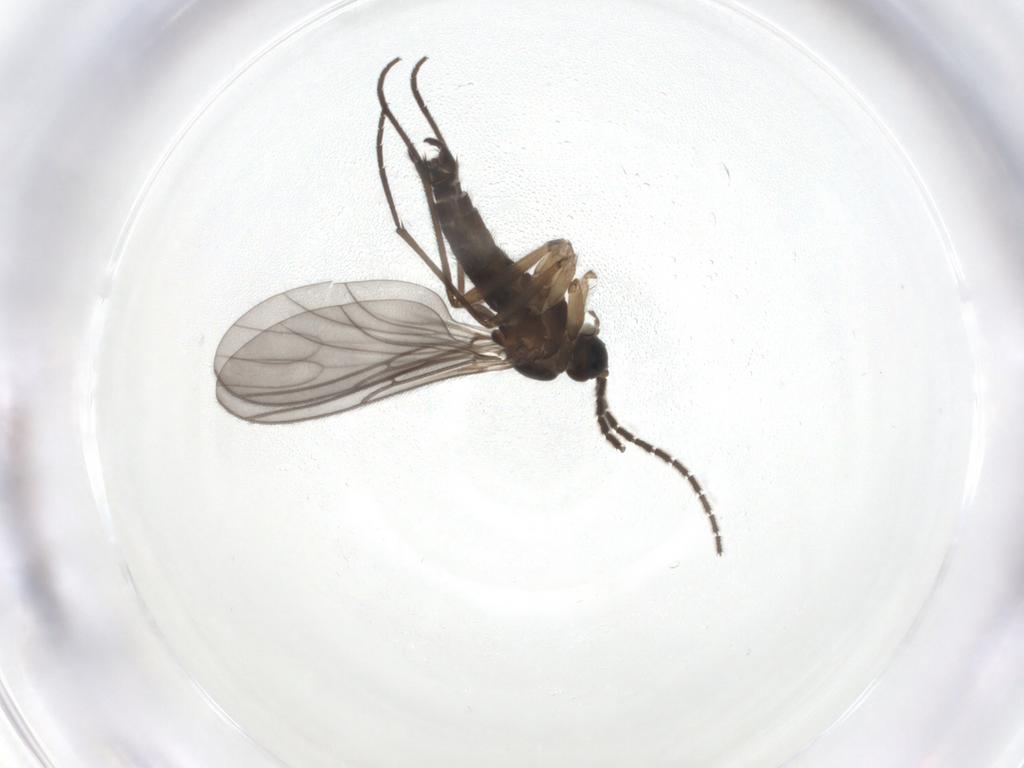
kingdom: Animalia
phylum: Arthropoda
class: Insecta
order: Diptera
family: Sciaridae
